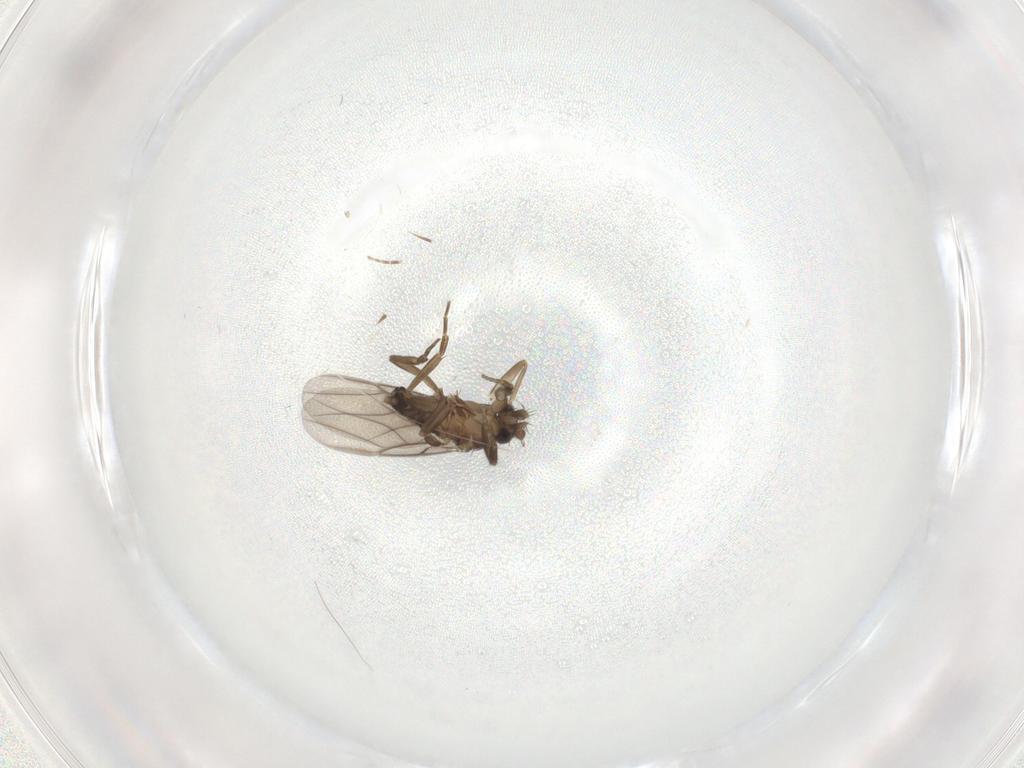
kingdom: Animalia
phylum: Arthropoda
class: Insecta
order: Diptera
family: Phoridae
